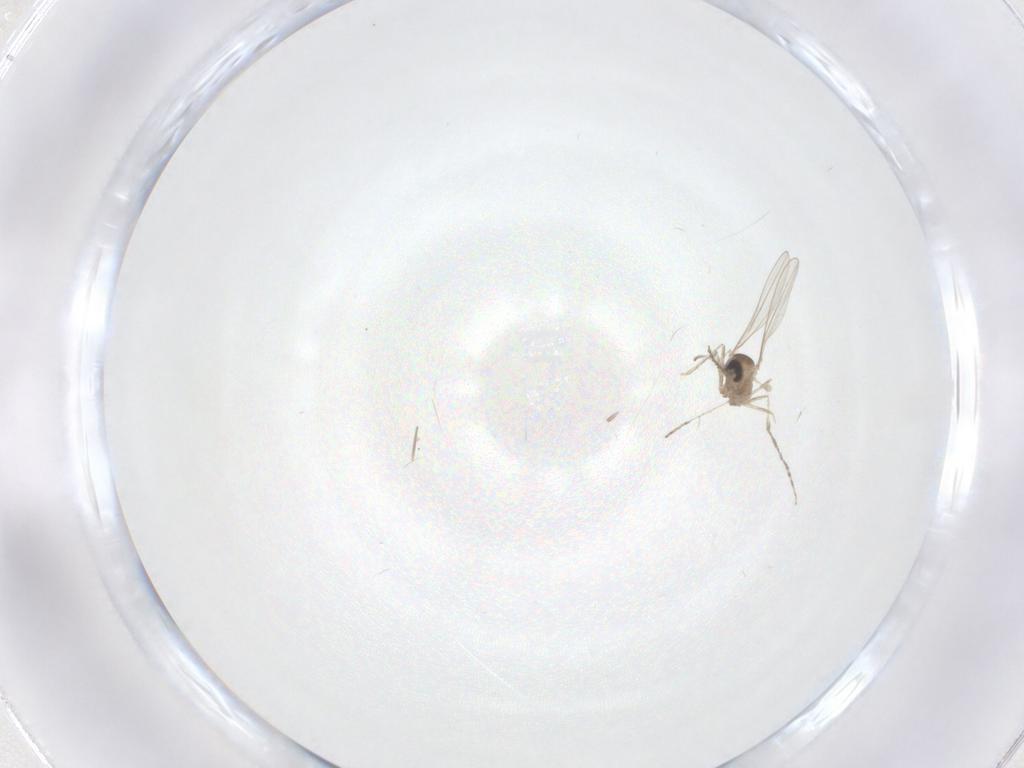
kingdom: Animalia
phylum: Arthropoda
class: Insecta
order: Diptera
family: Cecidomyiidae
